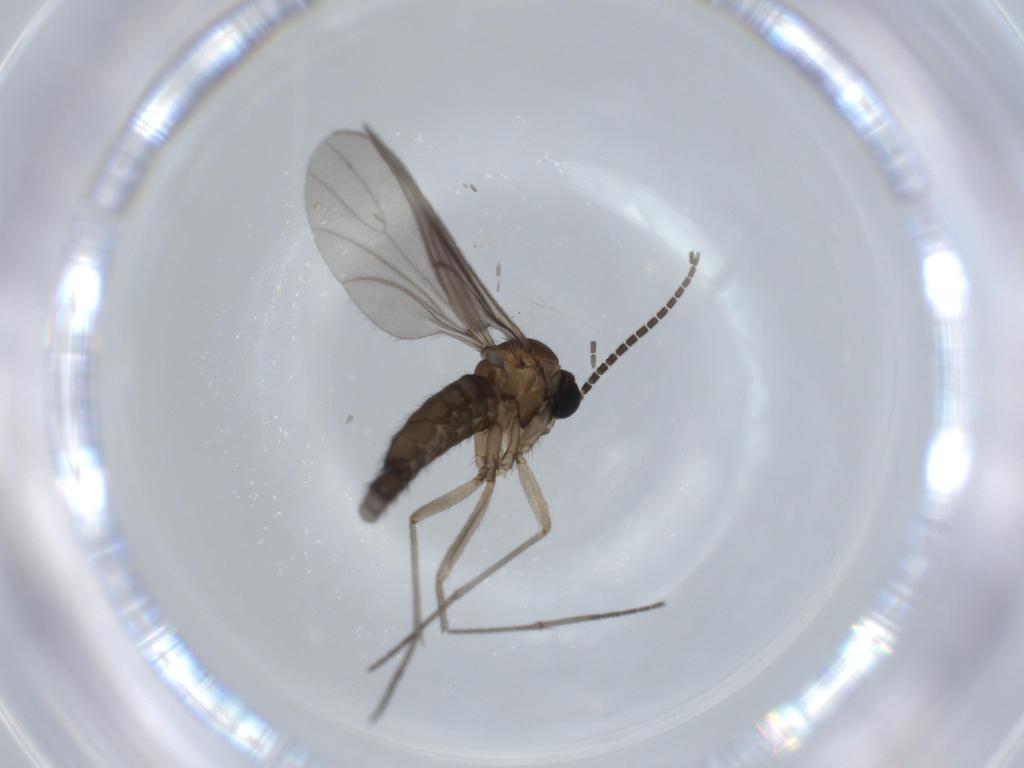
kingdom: Animalia
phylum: Arthropoda
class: Insecta
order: Diptera
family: Sciaridae
